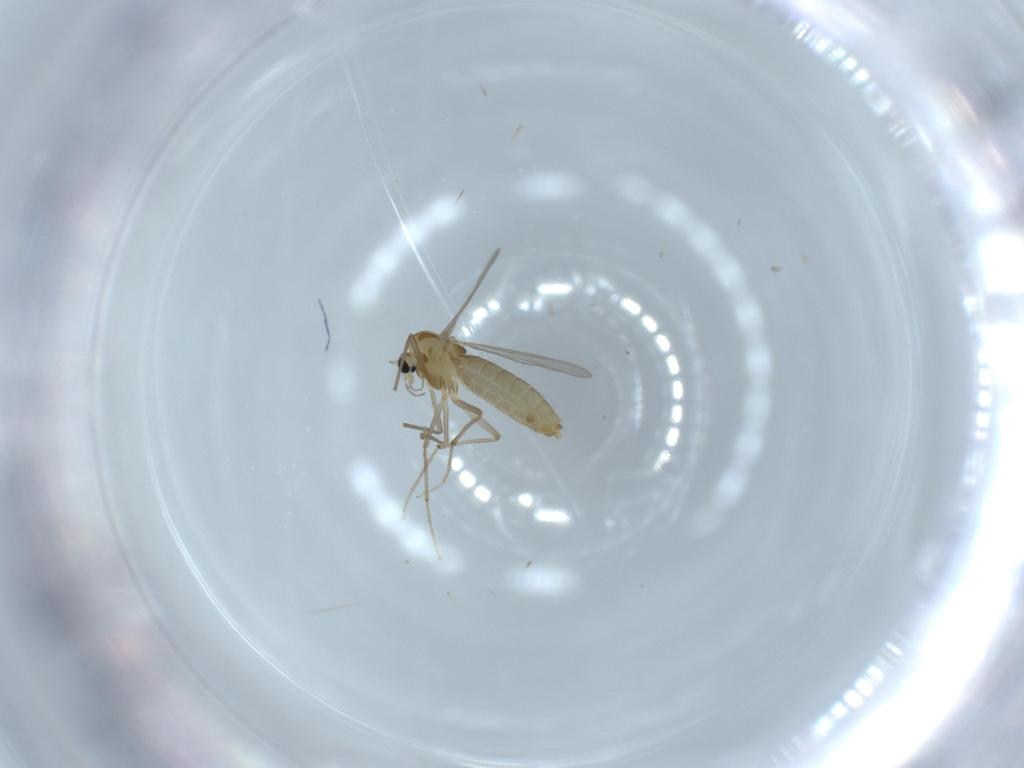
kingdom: Animalia
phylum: Arthropoda
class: Insecta
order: Diptera
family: Chironomidae
